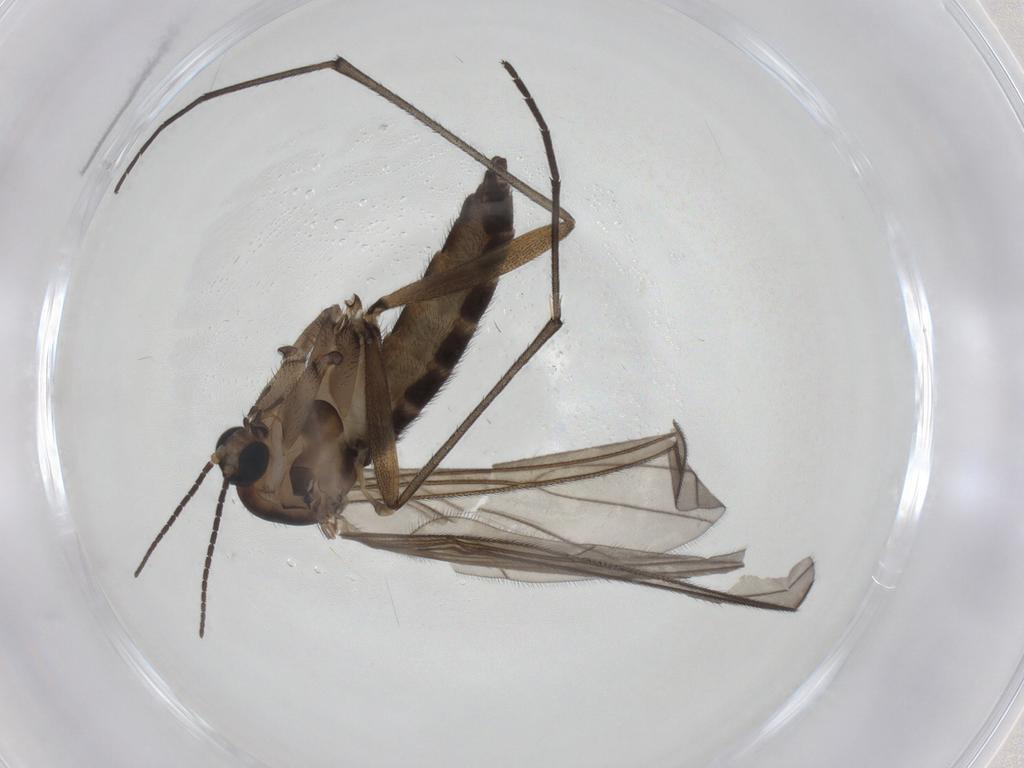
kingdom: Animalia
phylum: Arthropoda
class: Insecta
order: Diptera
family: Sciaridae
